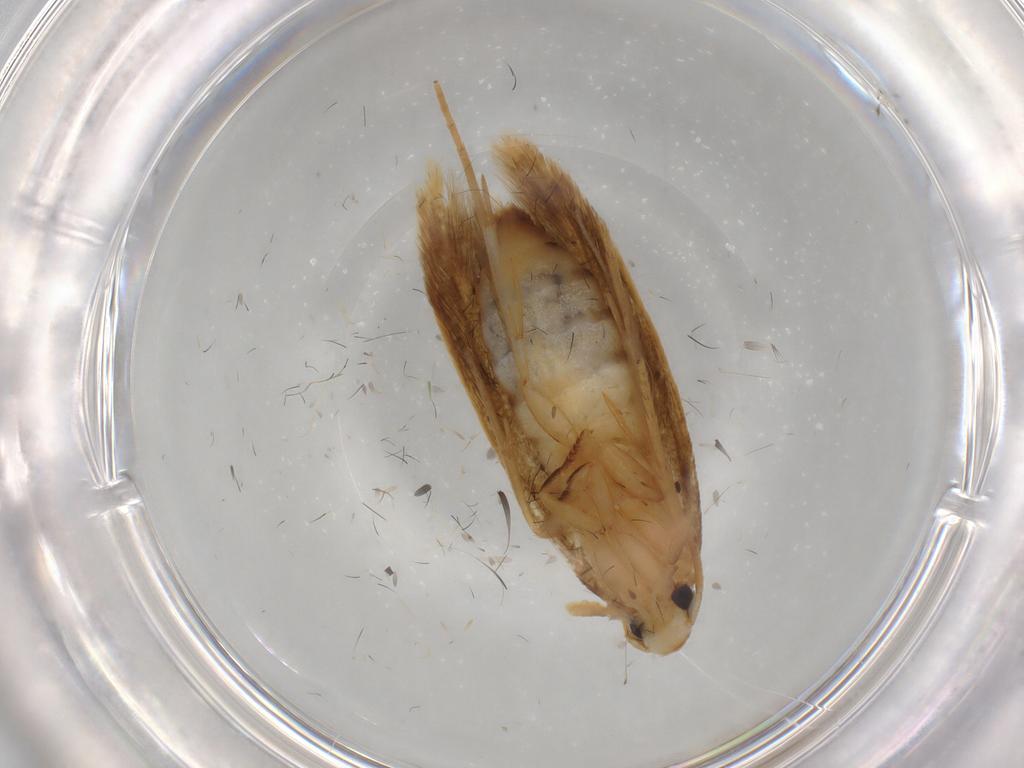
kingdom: Animalia
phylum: Arthropoda
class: Insecta
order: Lepidoptera
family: Tineidae
